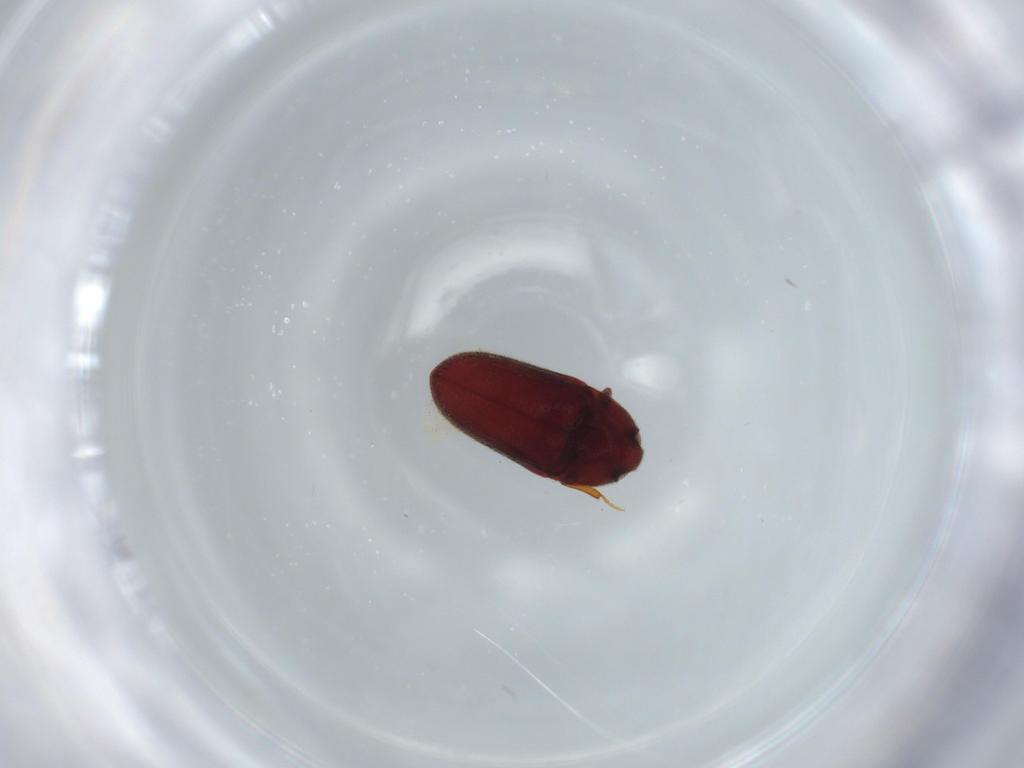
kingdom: Animalia
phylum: Arthropoda
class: Insecta
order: Coleoptera
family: Throscidae
